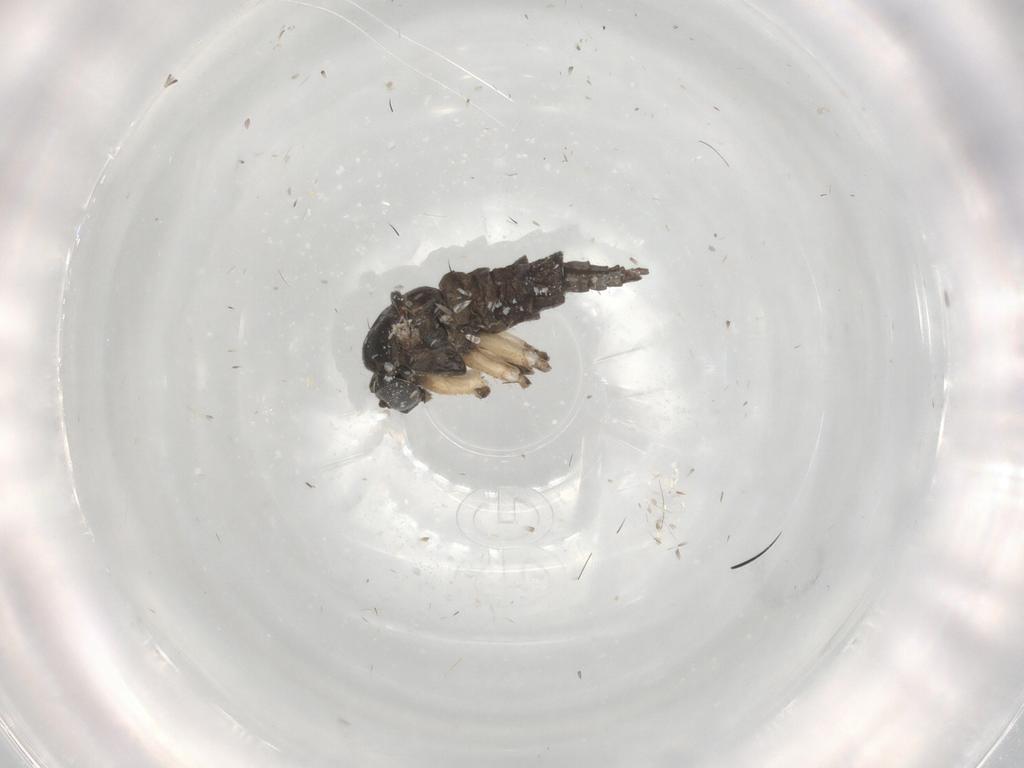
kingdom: Animalia
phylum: Arthropoda
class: Insecta
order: Diptera
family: Sciaridae
